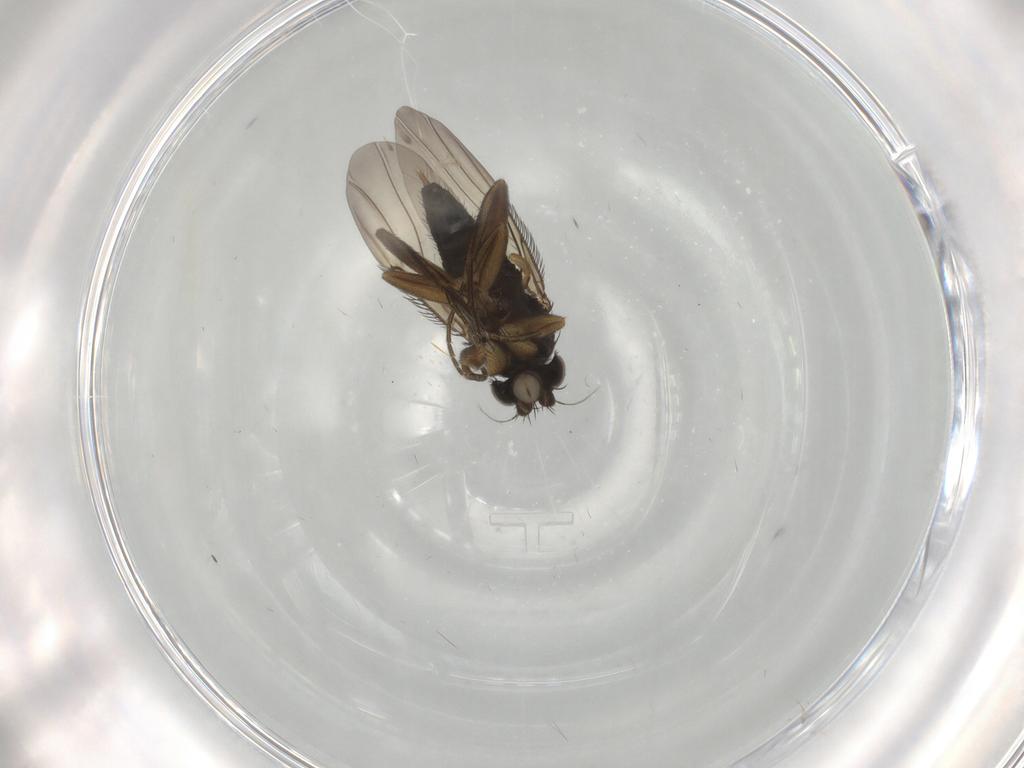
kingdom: Animalia
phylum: Arthropoda
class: Insecta
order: Diptera
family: Phoridae
